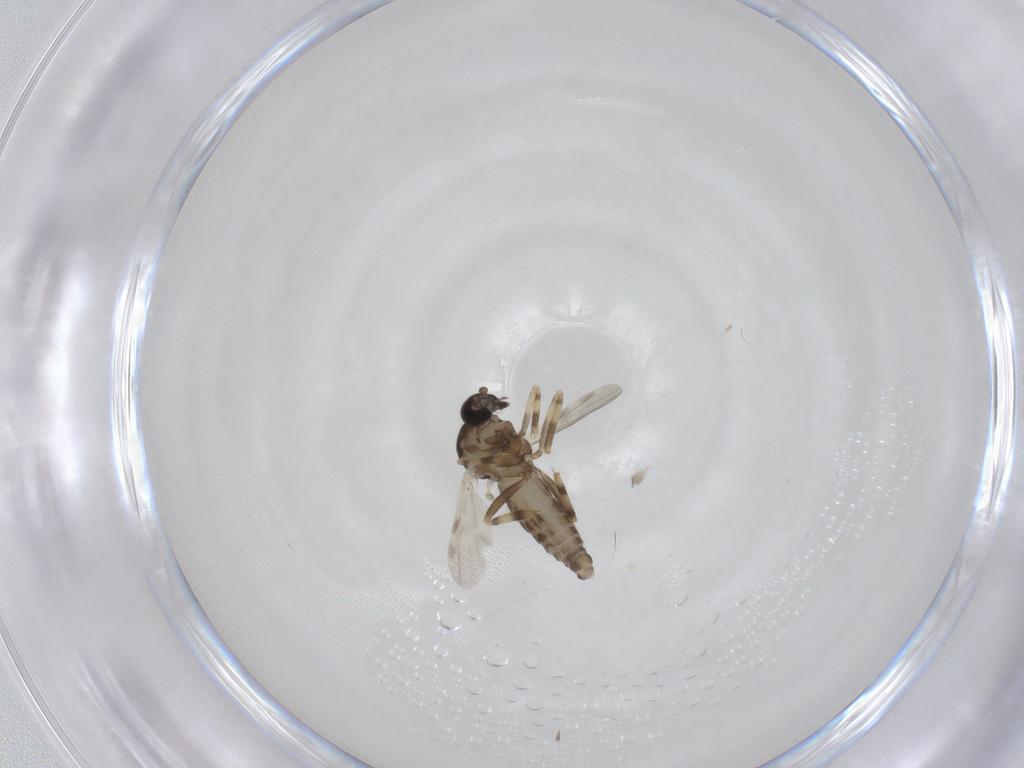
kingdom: Animalia
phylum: Arthropoda
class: Insecta
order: Diptera
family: Ceratopogonidae
